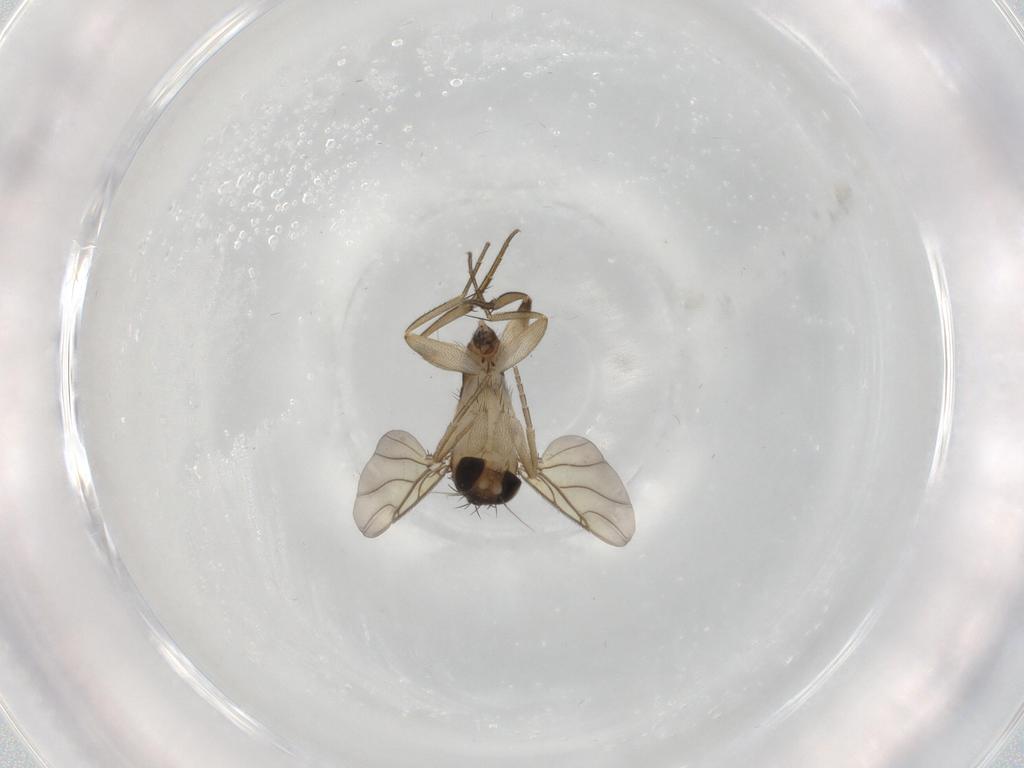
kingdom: Animalia
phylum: Arthropoda
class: Insecta
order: Diptera
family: Phoridae
